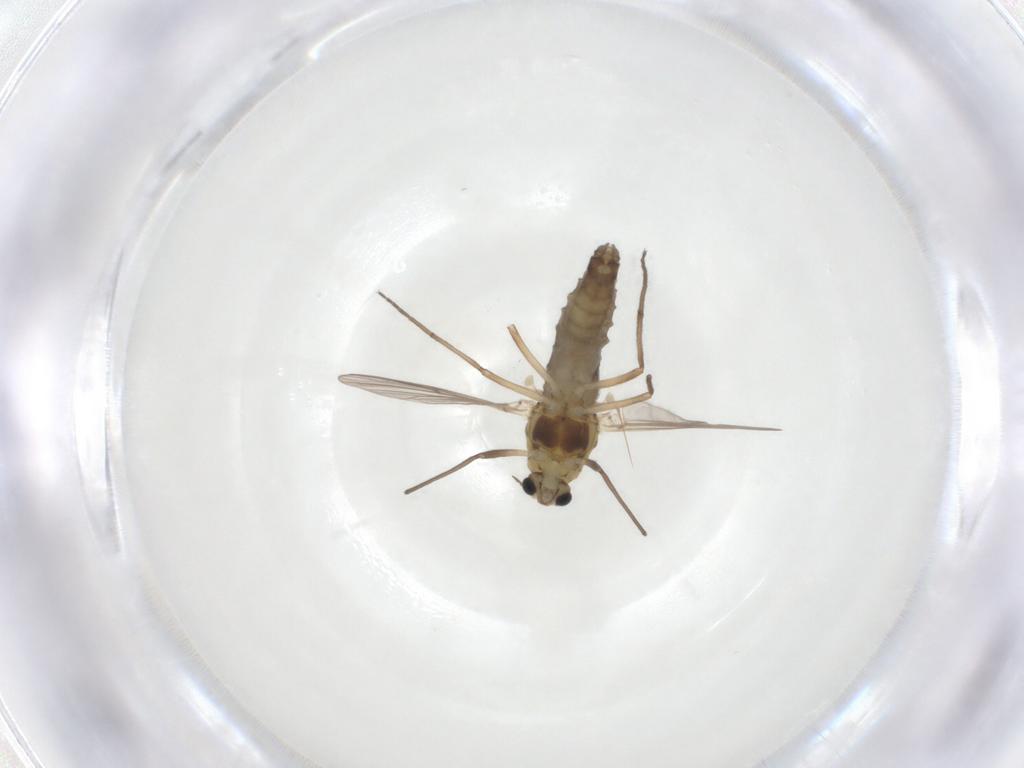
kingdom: Animalia
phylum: Arthropoda
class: Insecta
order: Diptera
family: Chironomidae
